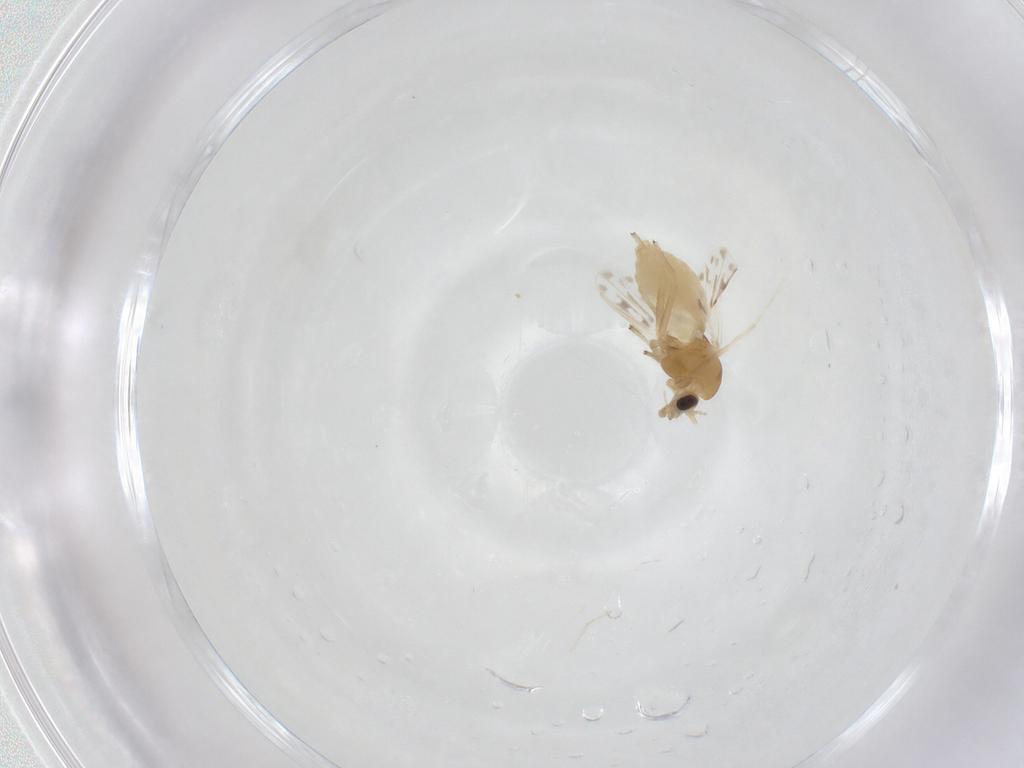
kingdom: Animalia
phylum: Arthropoda
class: Insecta
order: Diptera
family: Chironomidae
